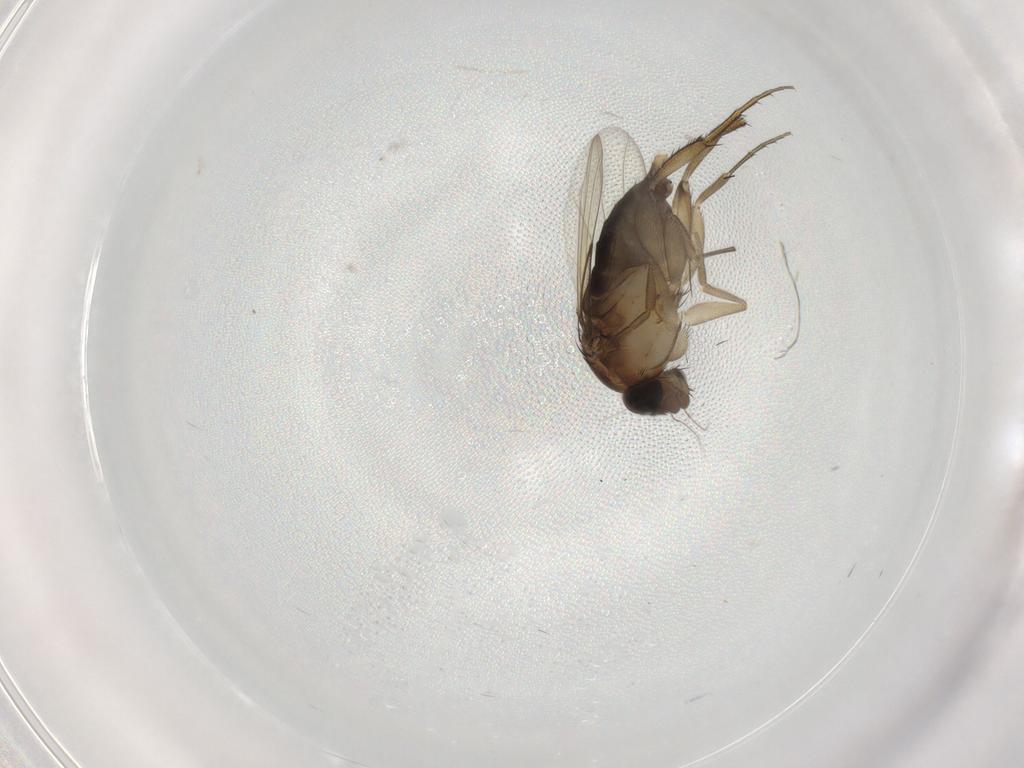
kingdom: Animalia
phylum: Arthropoda
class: Insecta
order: Diptera
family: Phoridae
